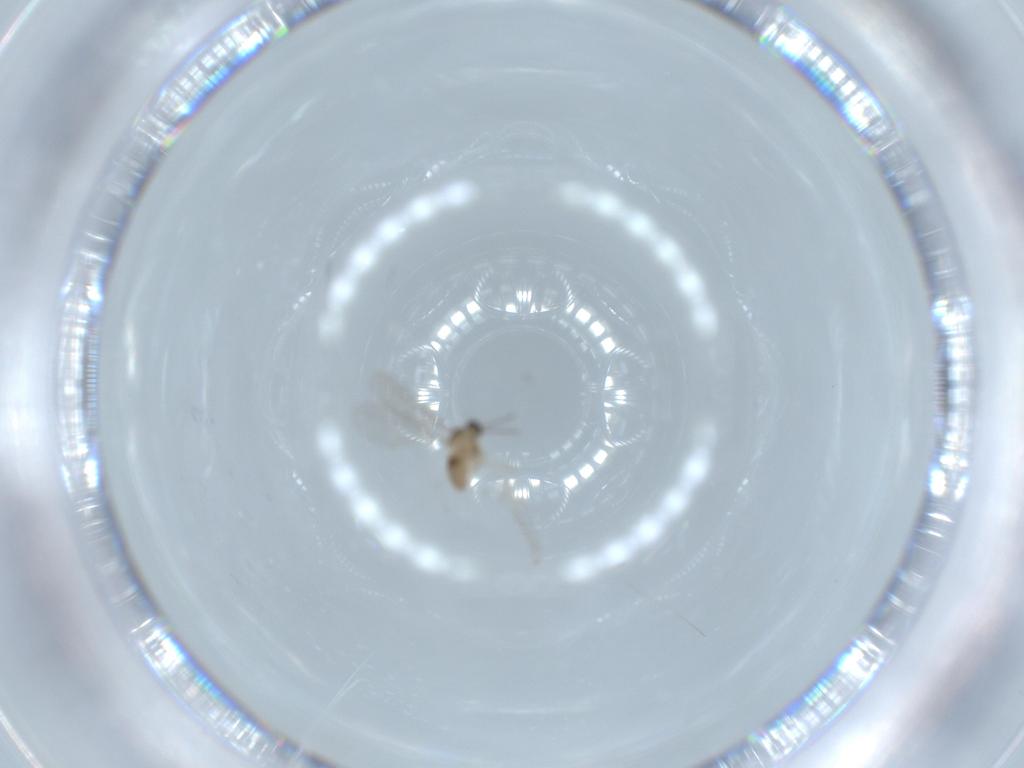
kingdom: Animalia
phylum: Arthropoda
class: Insecta
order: Diptera
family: Cecidomyiidae
